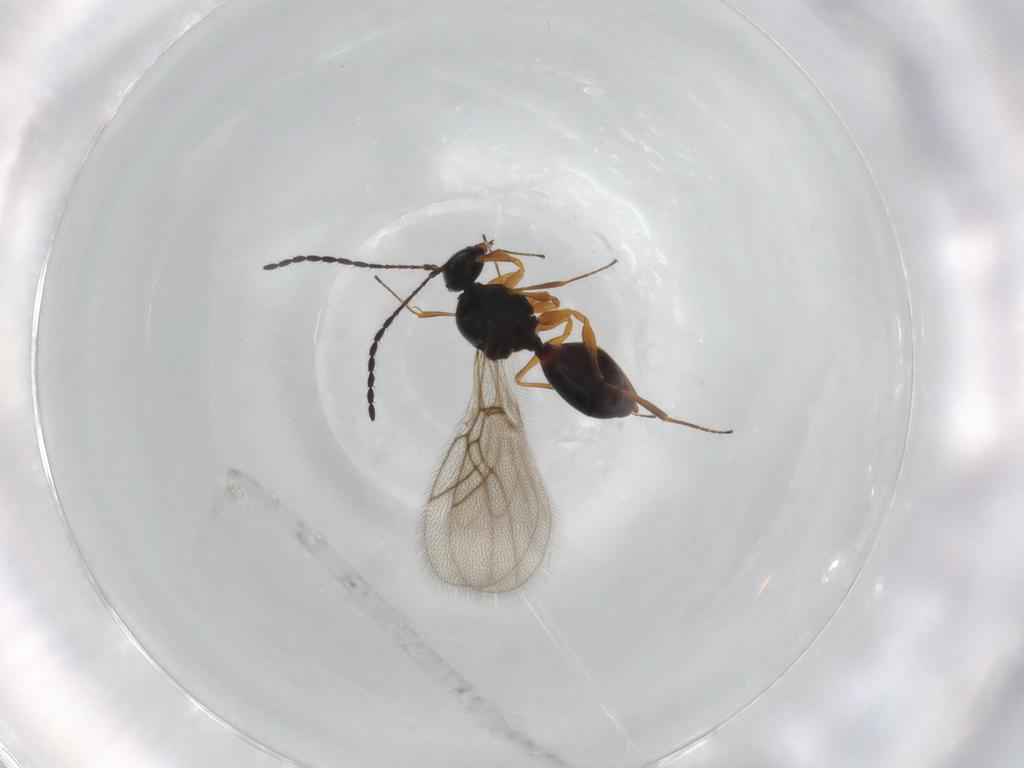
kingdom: Animalia
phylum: Arthropoda
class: Insecta
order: Hymenoptera
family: Figitidae
